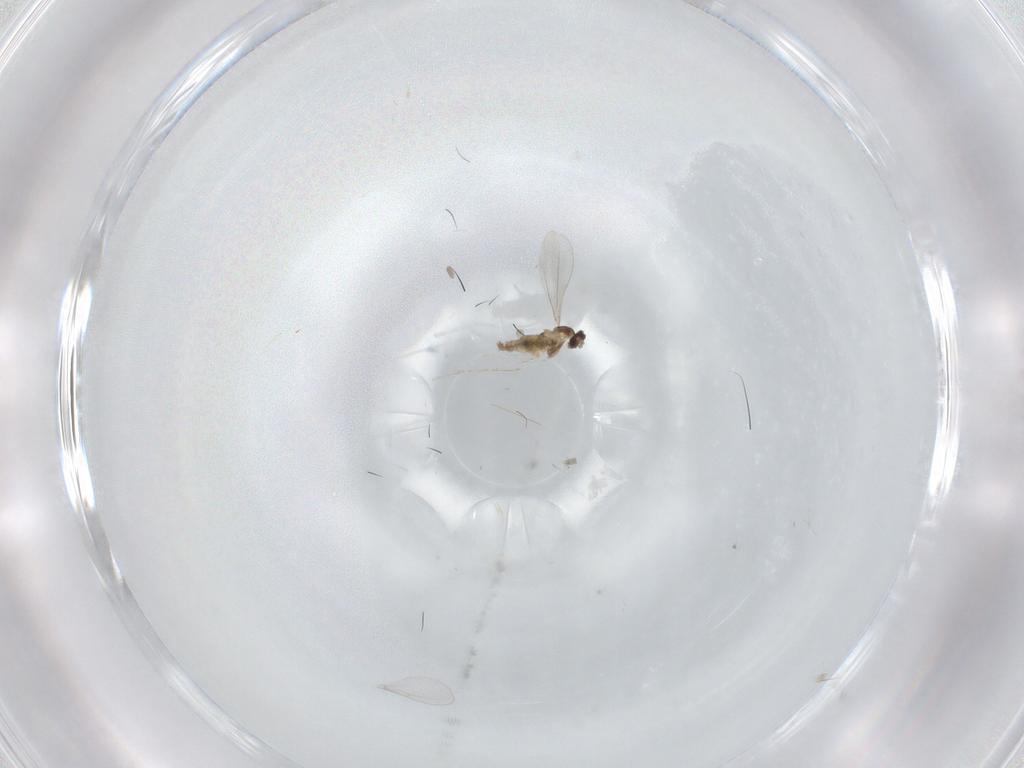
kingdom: Animalia
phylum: Arthropoda
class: Insecta
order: Diptera
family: Cecidomyiidae
